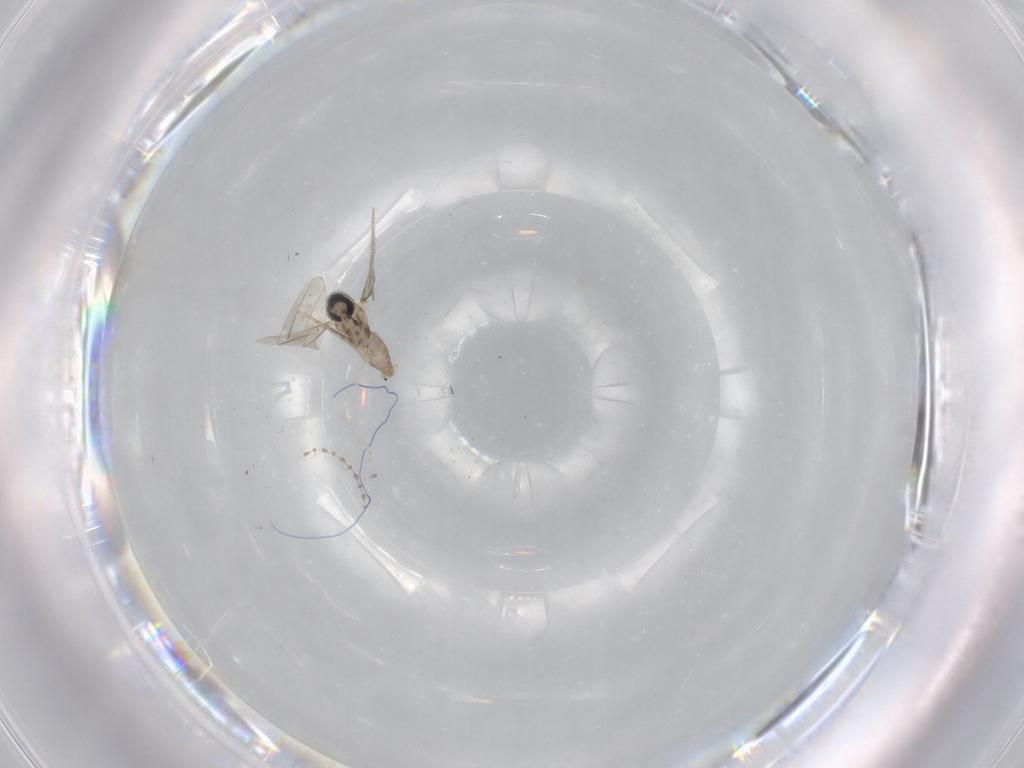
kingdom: Animalia
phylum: Arthropoda
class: Insecta
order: Diptera
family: Cecidomyiidae
